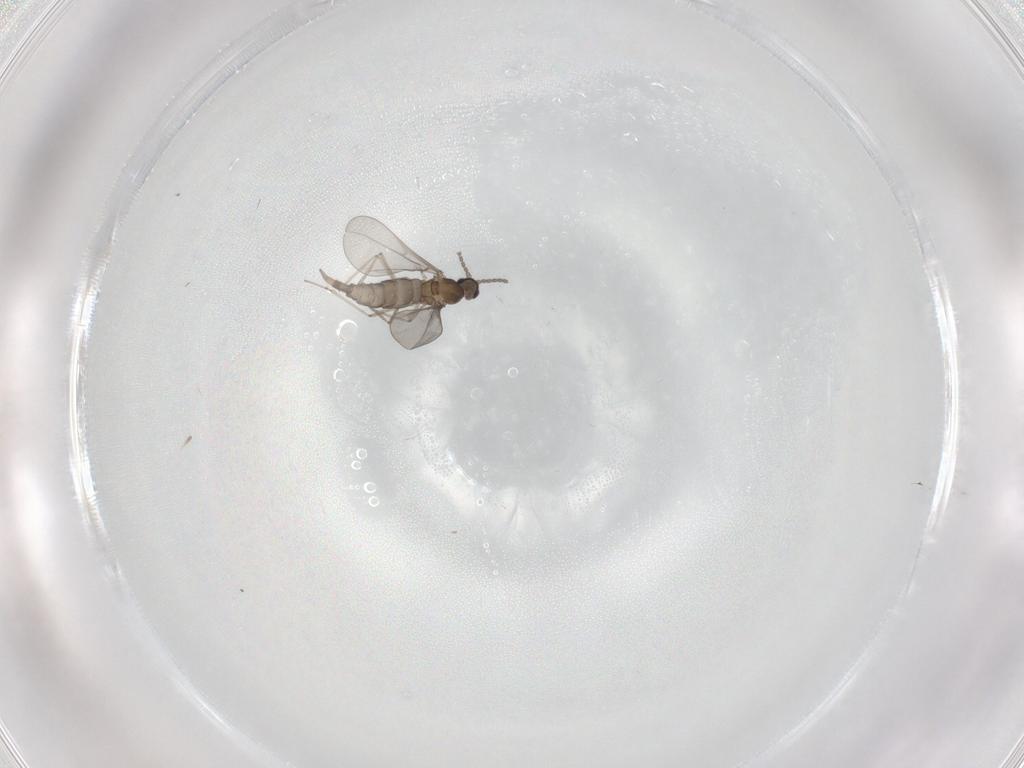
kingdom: Animalia
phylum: Arthropoda
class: Insecta
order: Diptera
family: Cecidomyiidae
